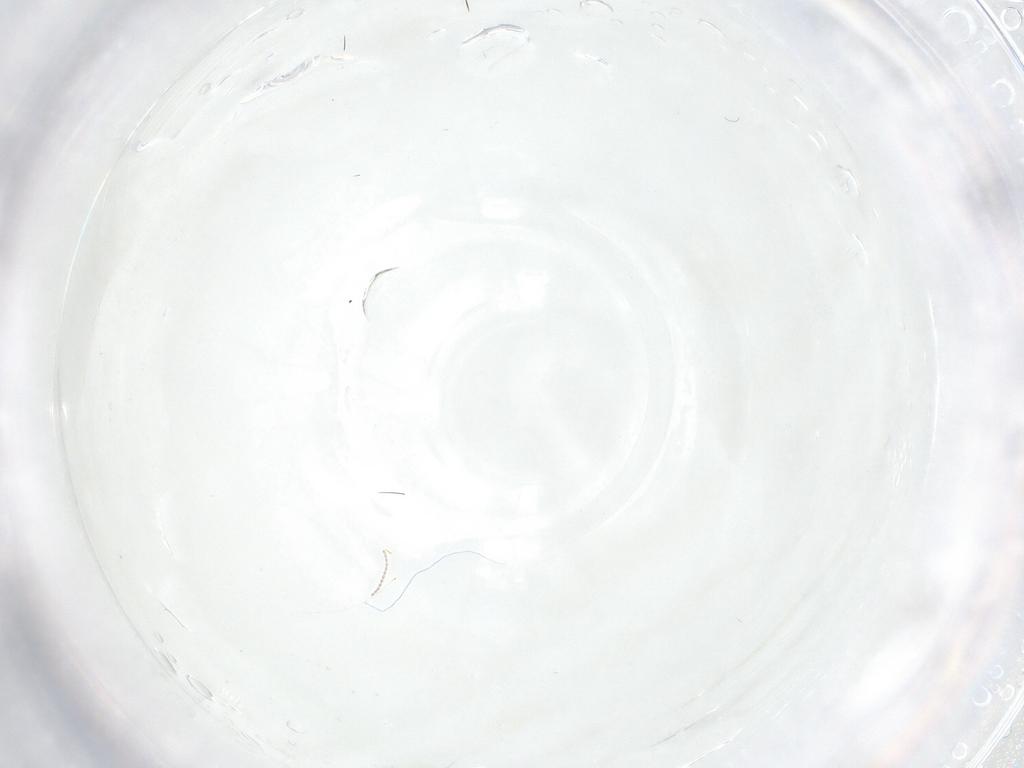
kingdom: Animalia
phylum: Arthropoda
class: Insecta
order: Diptera
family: Cecidomyiidae
